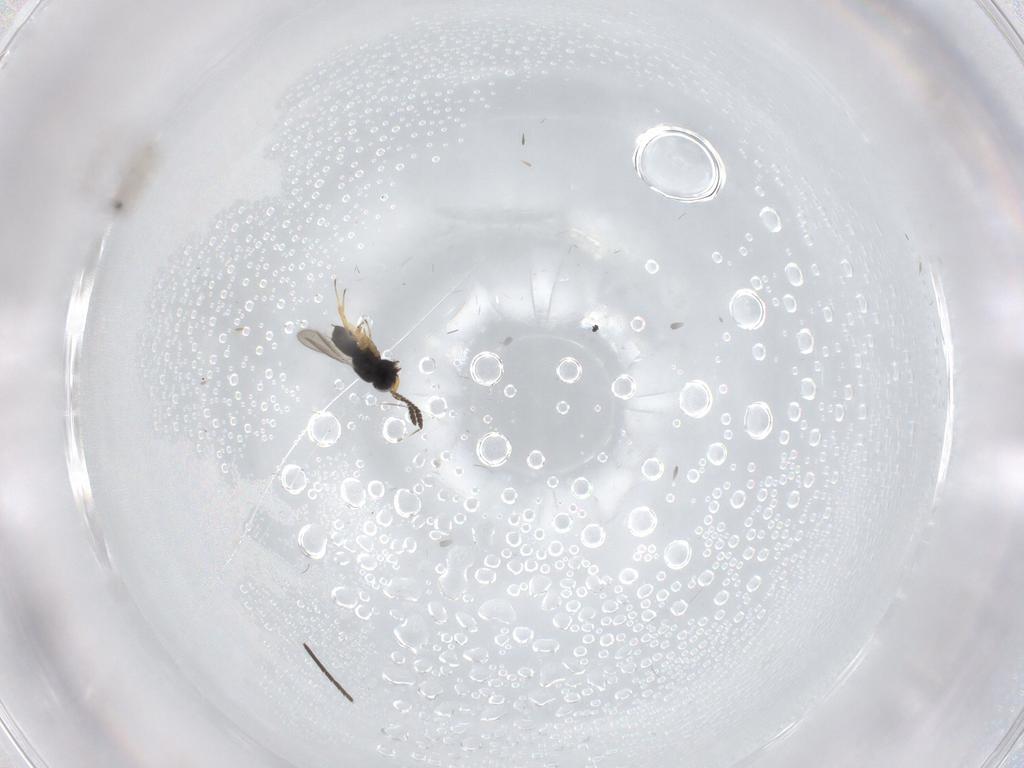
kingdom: Animalia
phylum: Arthropoda
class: Insecta
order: Hymenoptera
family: Scelionidae
